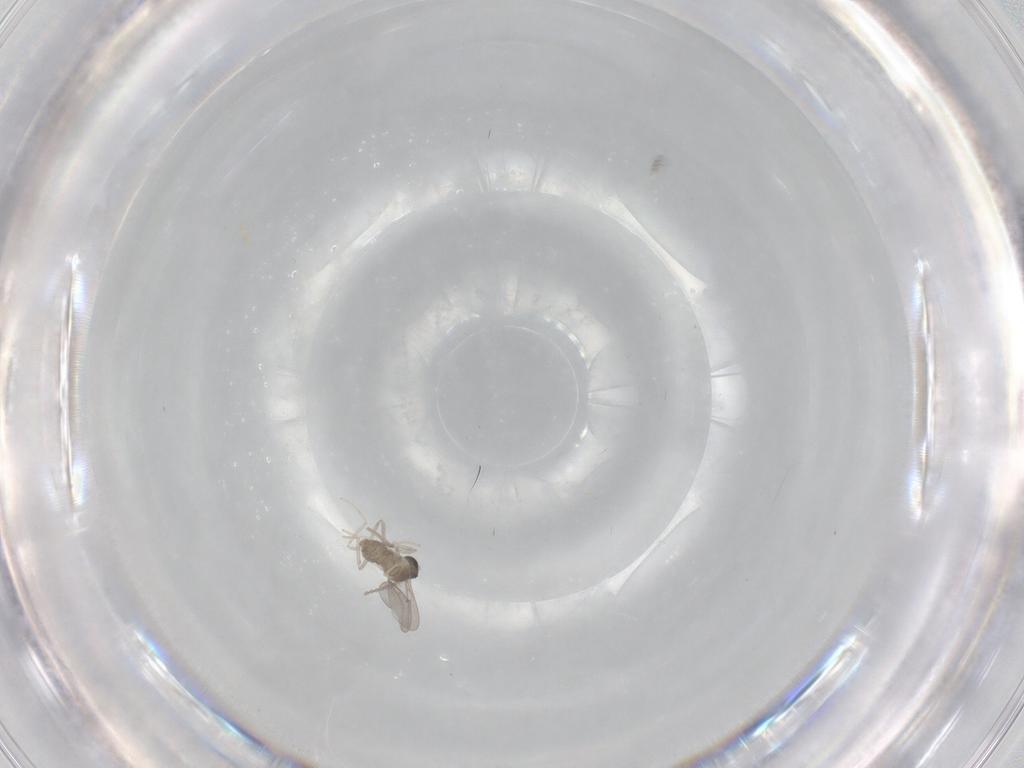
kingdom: Animalia
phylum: Arthropoda
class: Insecta
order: Diptera
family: Cecidomyiidae
